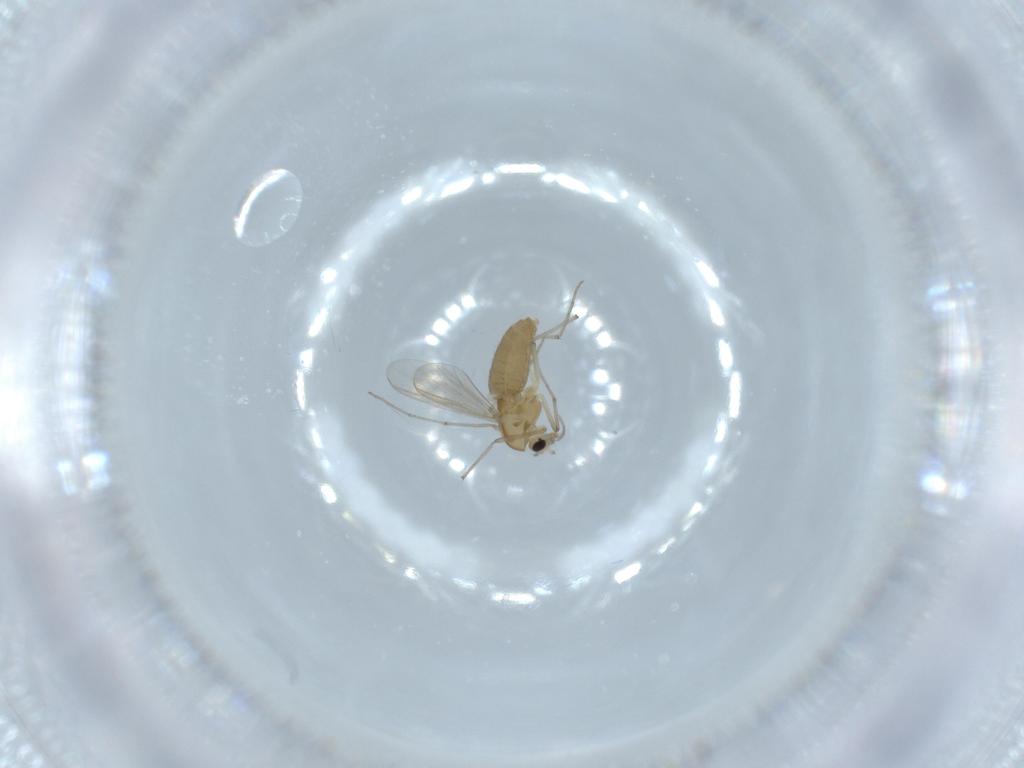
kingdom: Animalia
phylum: Arthropoda
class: Insecta
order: Diptera
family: Chironomidae
